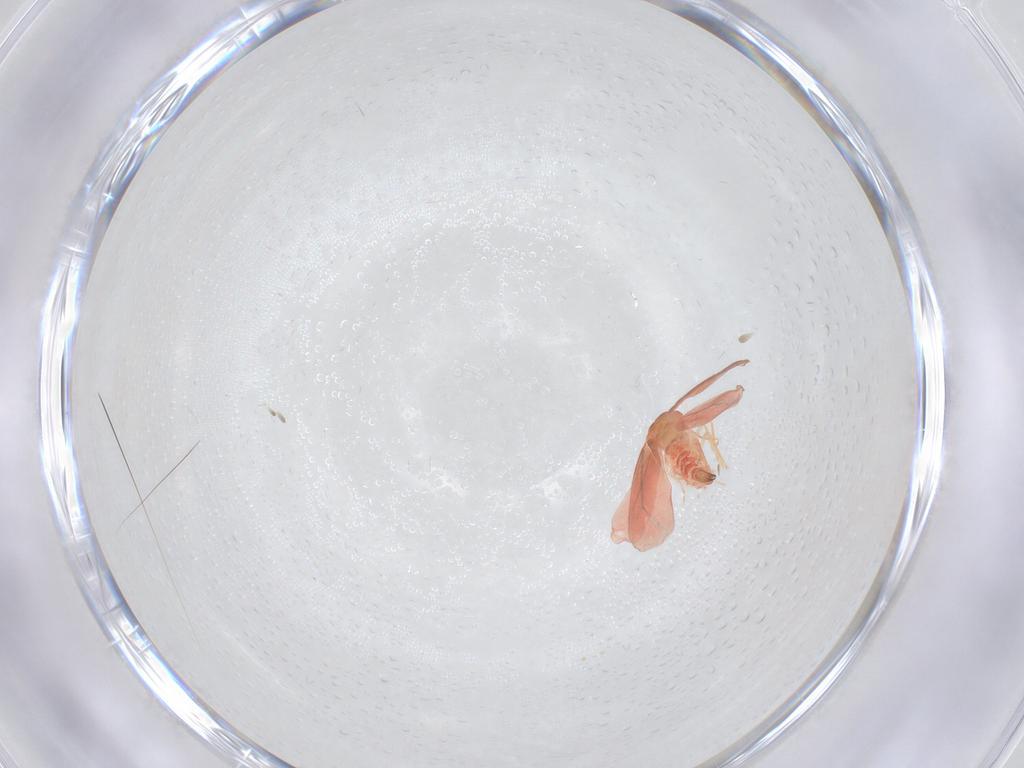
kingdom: Animalia
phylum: Arthropoda
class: Insecta
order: Hemiptera
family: Aleyrodidae
